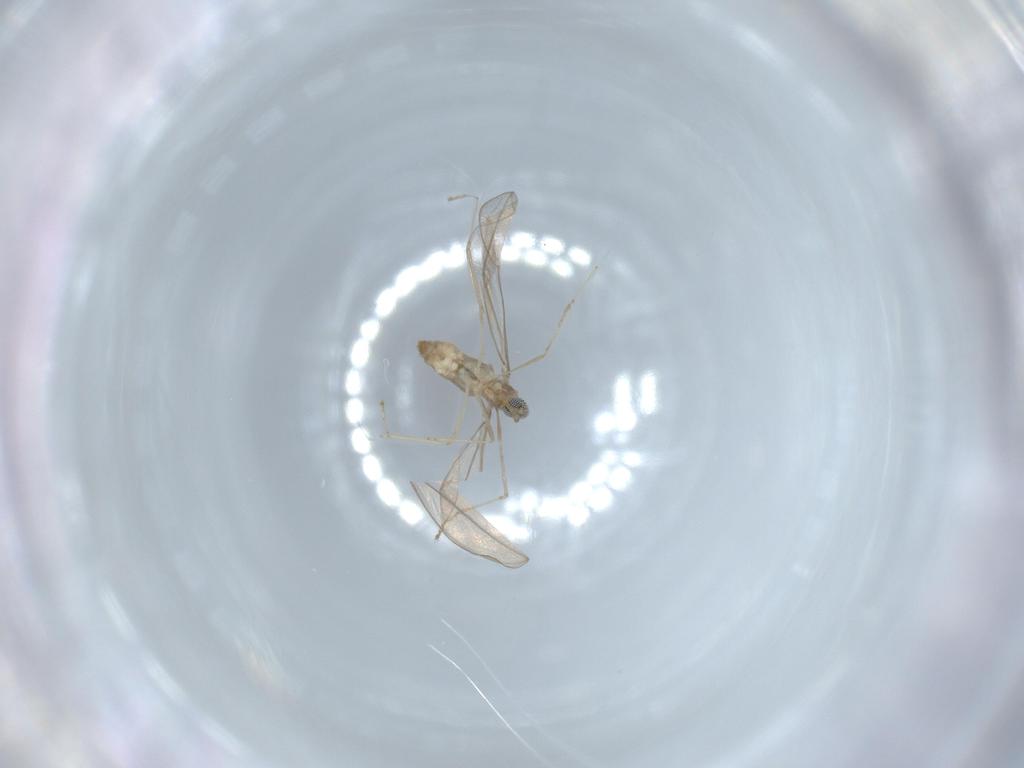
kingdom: Animalia
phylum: Arthropoda
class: Insecta
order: Diptera
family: Cecidomyiidae
